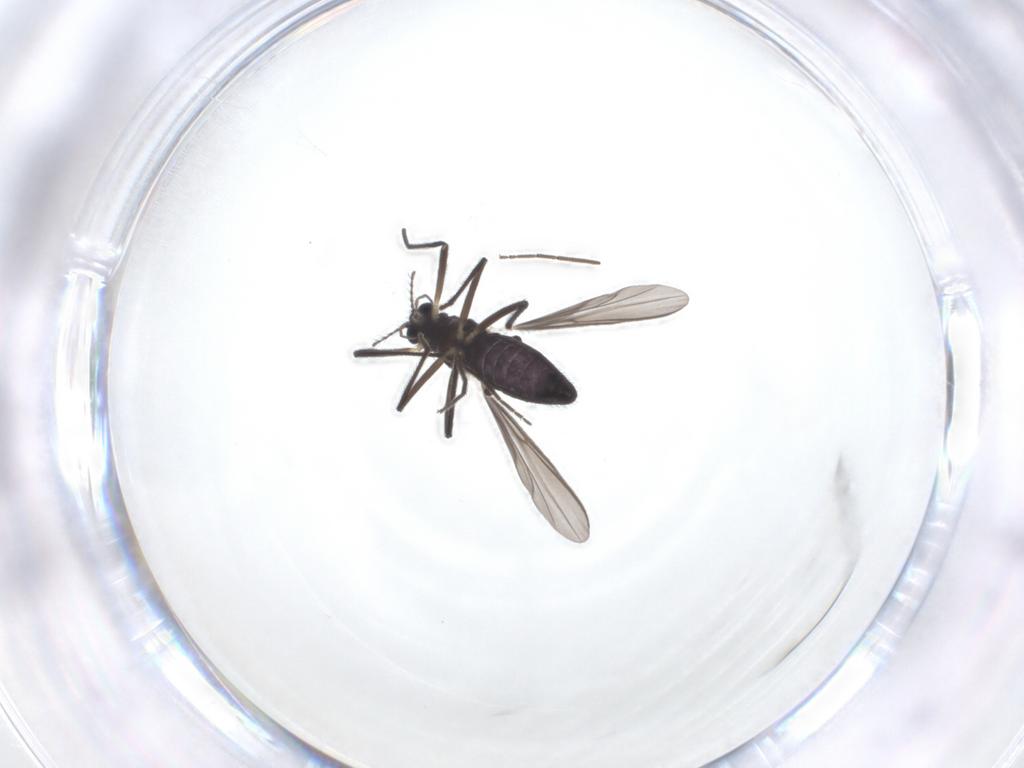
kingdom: Animalia
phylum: Arthropoda
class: Insecta
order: Diptera
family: Chironomidae
